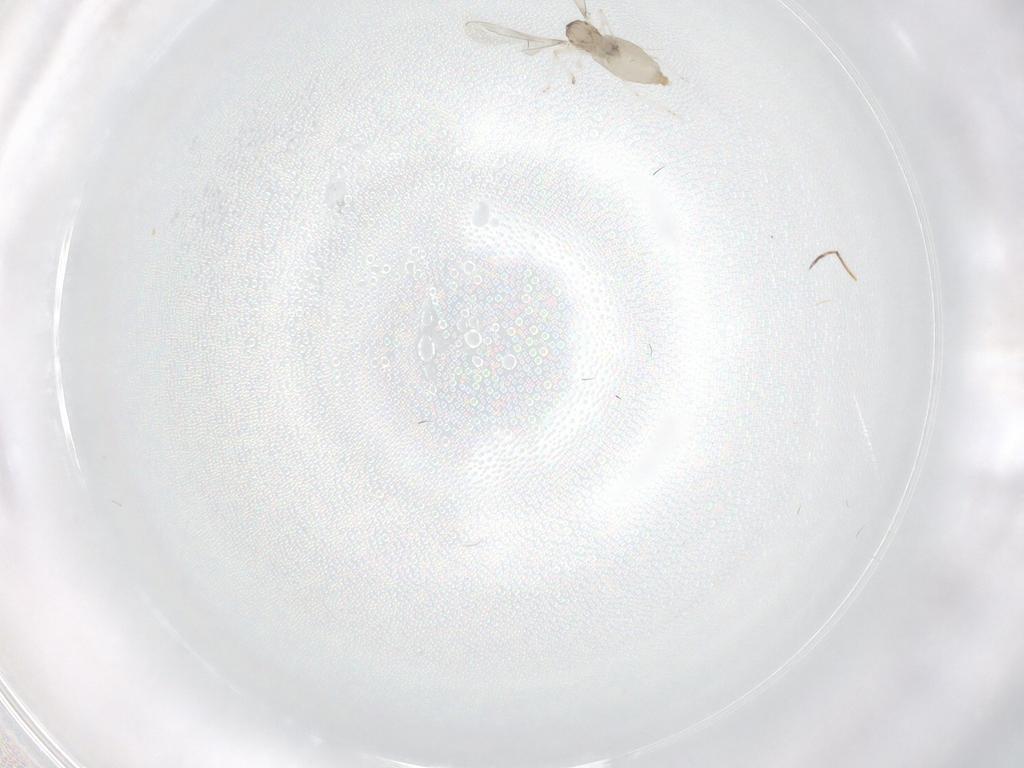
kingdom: Animalia
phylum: Arthropoda
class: Insecta
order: Diptera
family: Cecidomyiidae
